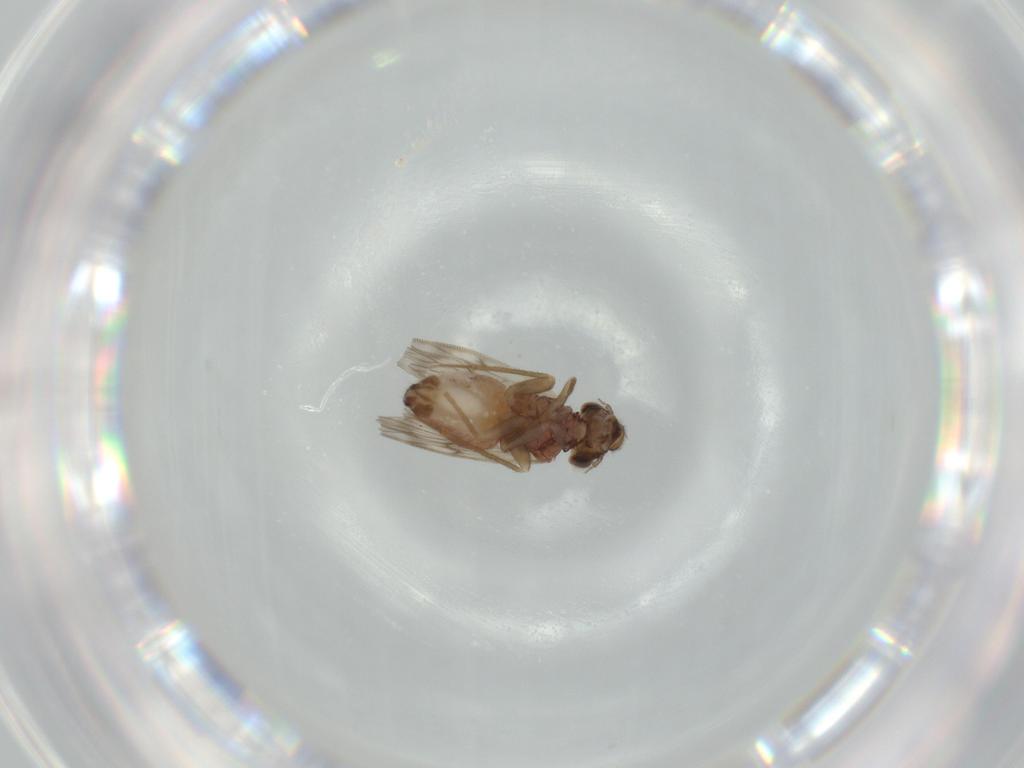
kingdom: Animalia
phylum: Arthropoda
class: Insecta
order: Psocodea
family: Lepidopsocidae
